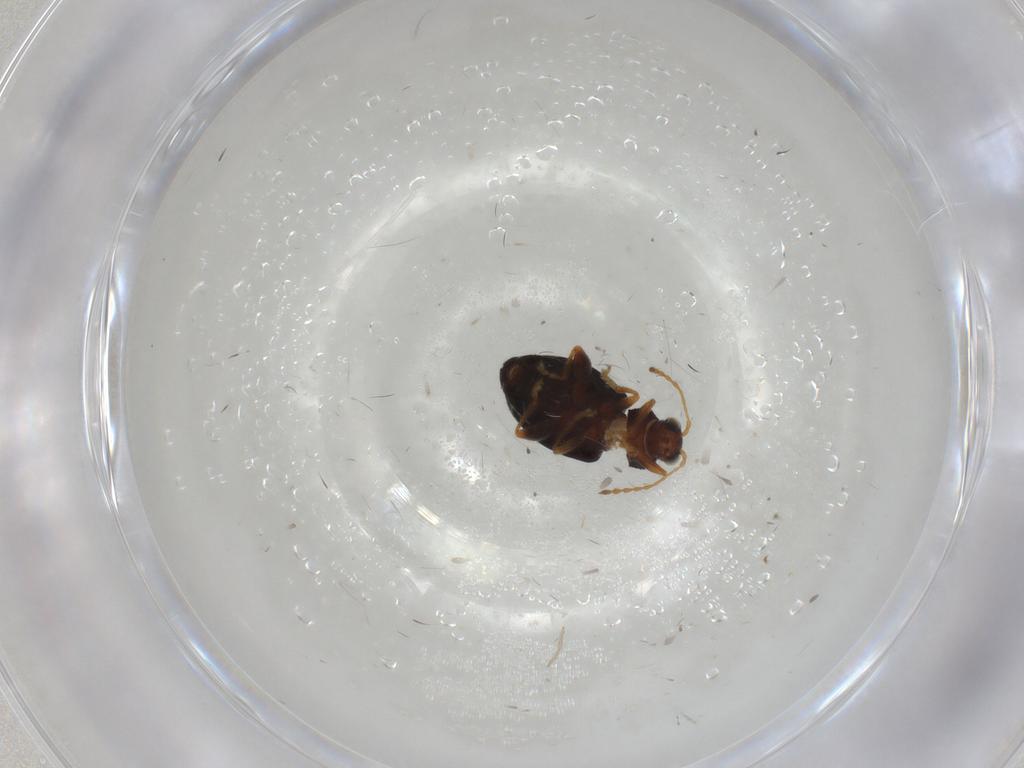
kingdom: Animalia
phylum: Arthropoda
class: Insecta
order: Coleoptera
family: Chrysomelidae
